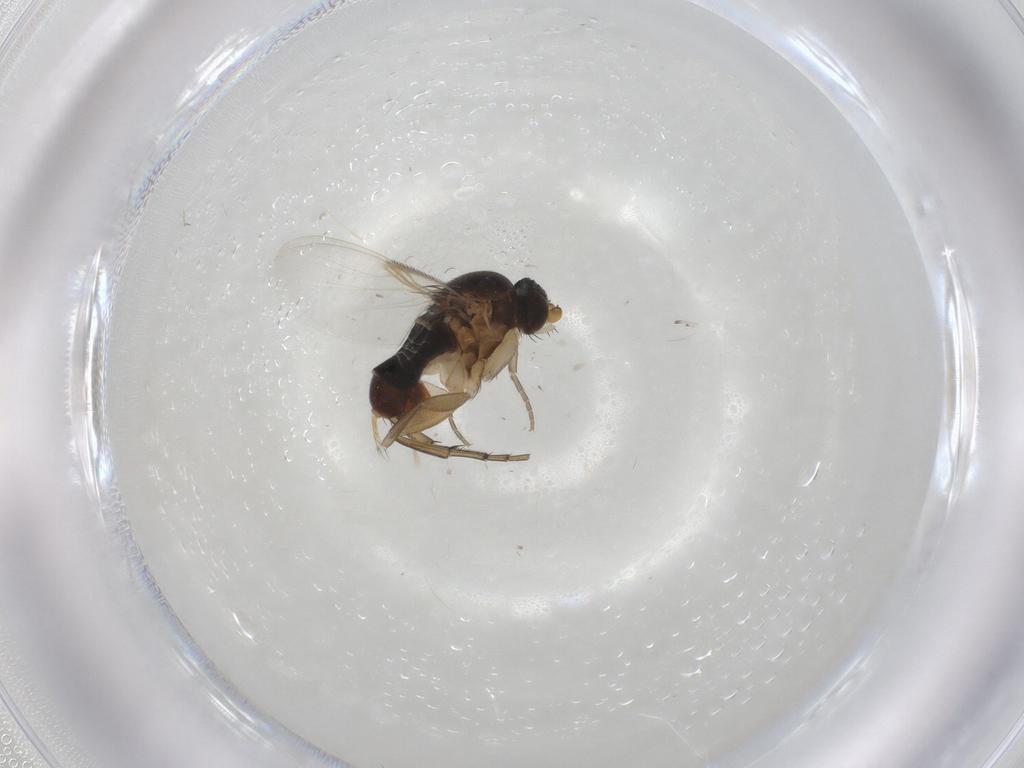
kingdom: Animalia
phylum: Arthropoda
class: Insecta
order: Diptera
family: Phoridae
